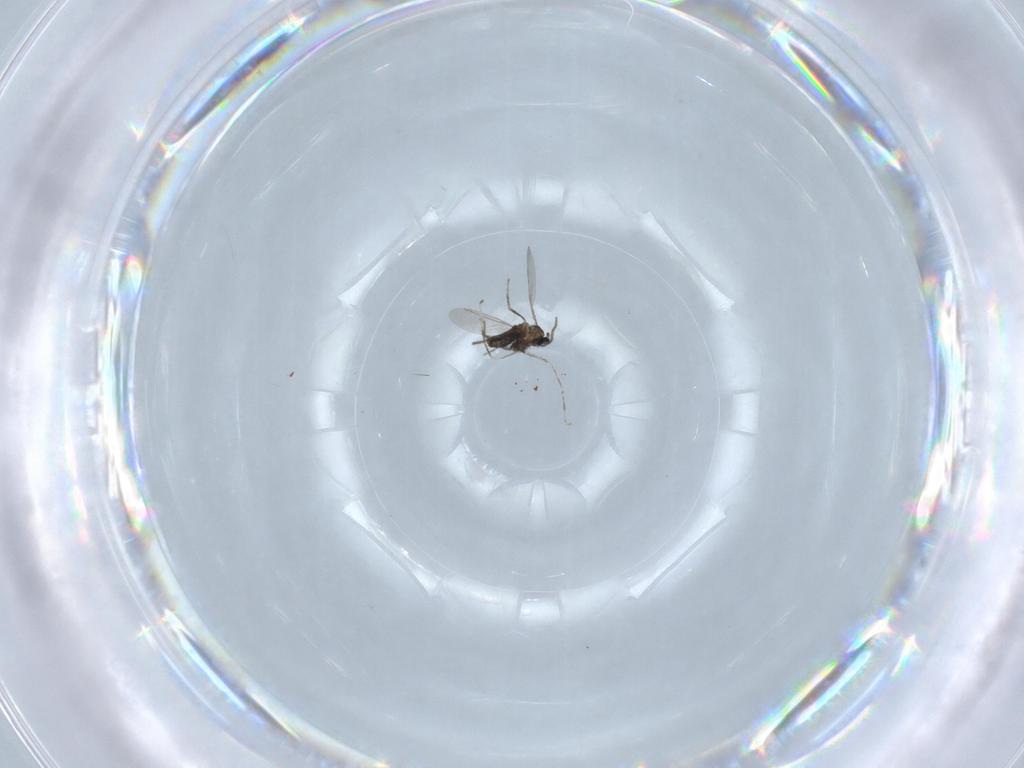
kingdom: Animalia
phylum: Arthropoda
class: Insecta
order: Diptera
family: Cecidomyiidae
